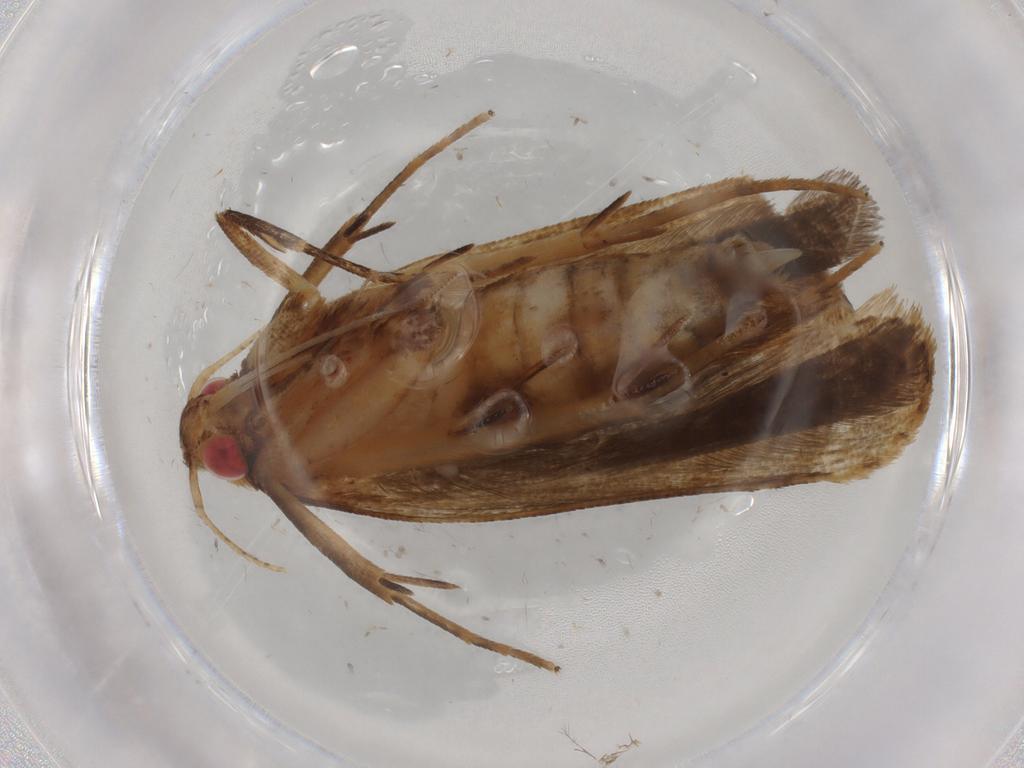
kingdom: Animalia
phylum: Arthropoda
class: Insecta
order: Lepidoptera
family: Depressariidae
